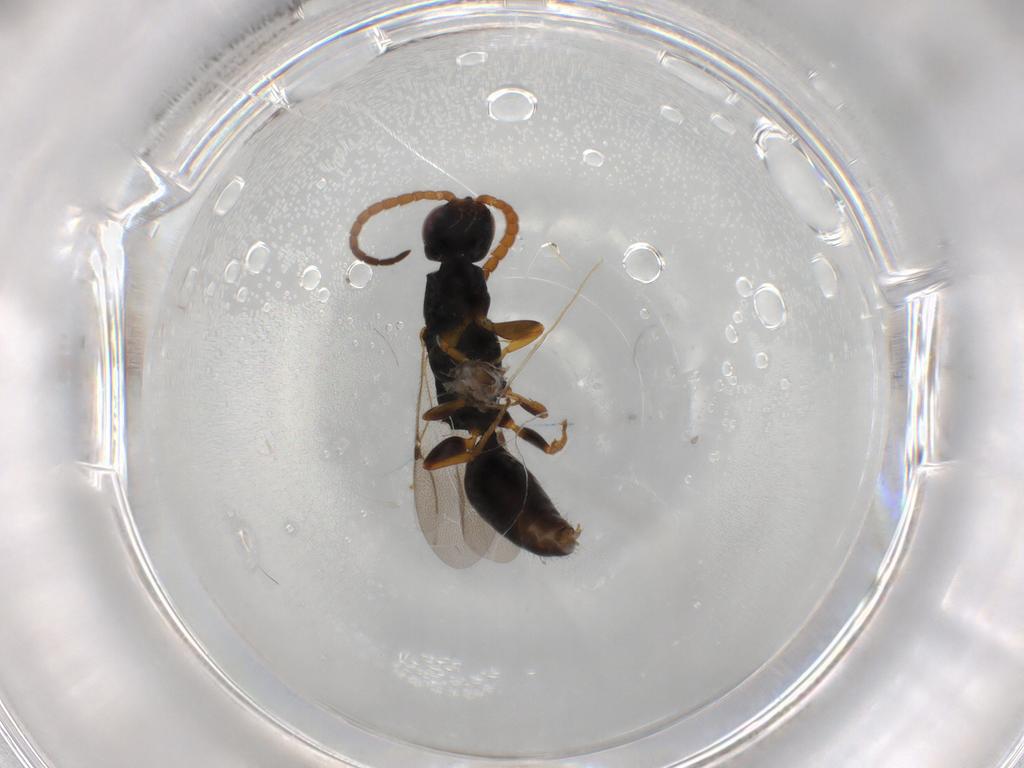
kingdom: Animalia
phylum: Arthropoda
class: Insecta
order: Hymenoptera
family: Bethylidae
